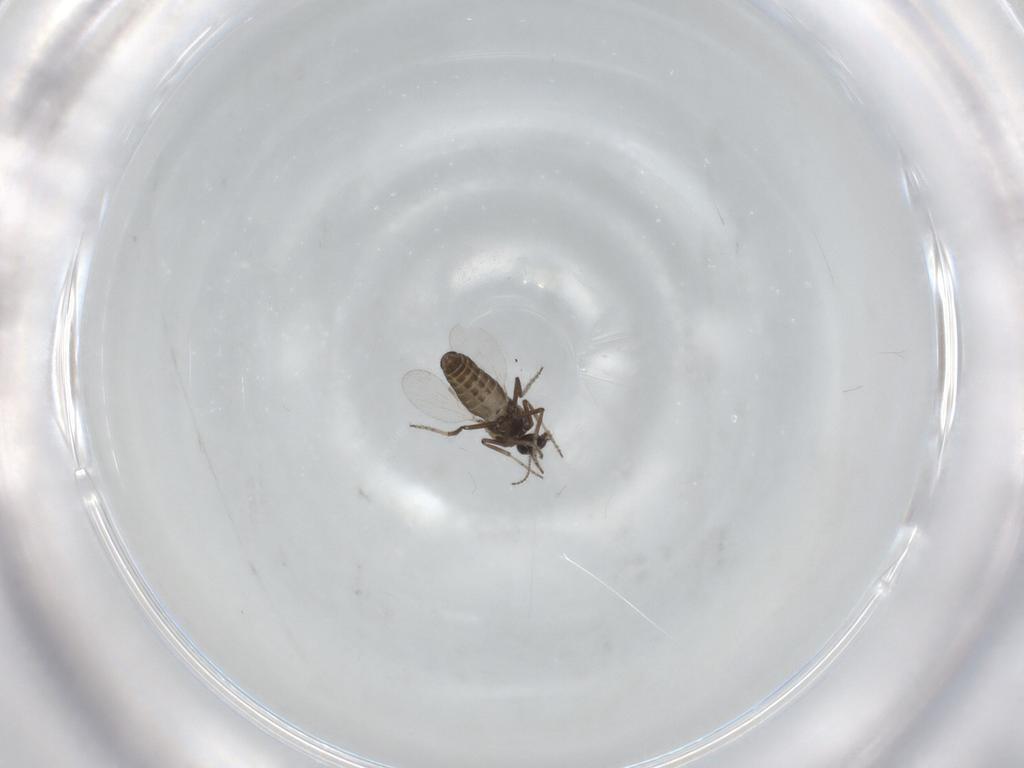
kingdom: Animalia
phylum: Arthropoda
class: Insecta
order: Diptera
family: Ceratopogonidae
